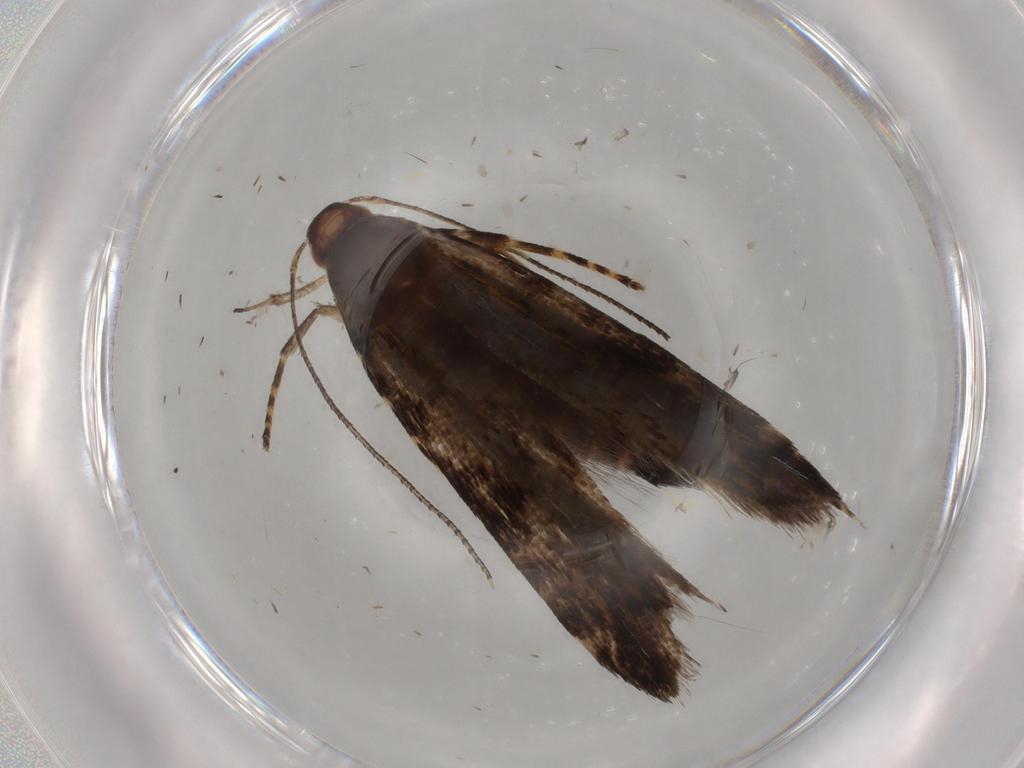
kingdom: Animalia
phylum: Arthropoda
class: Insecta
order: Lepidoptera
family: Gelechiidae
